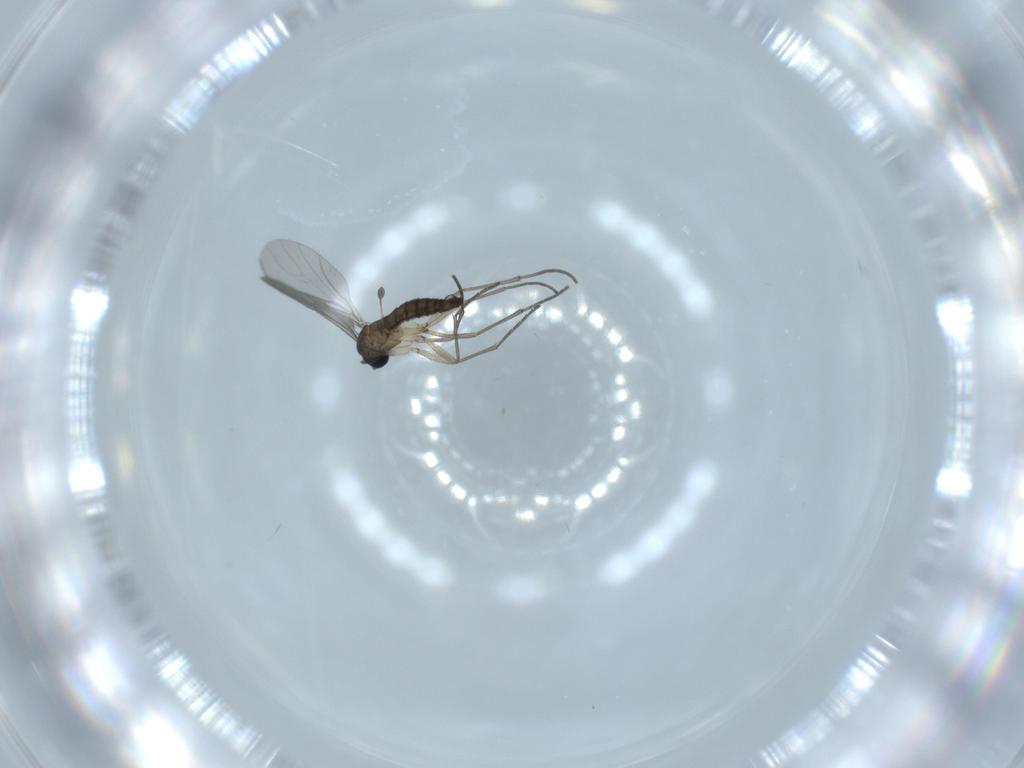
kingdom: Animalia
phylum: Arthropoda
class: Insecta
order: Diptera
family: Sciaridae
